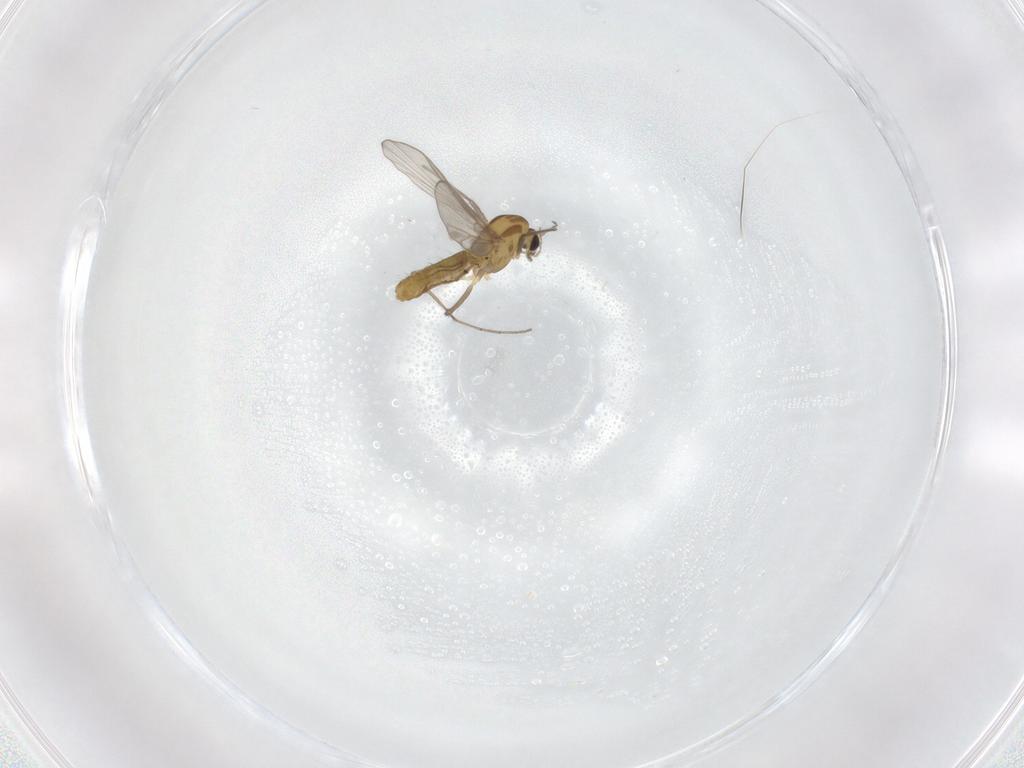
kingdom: Animalia
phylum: Arthropoda
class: Insecta
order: Diptera
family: Chironomidae
